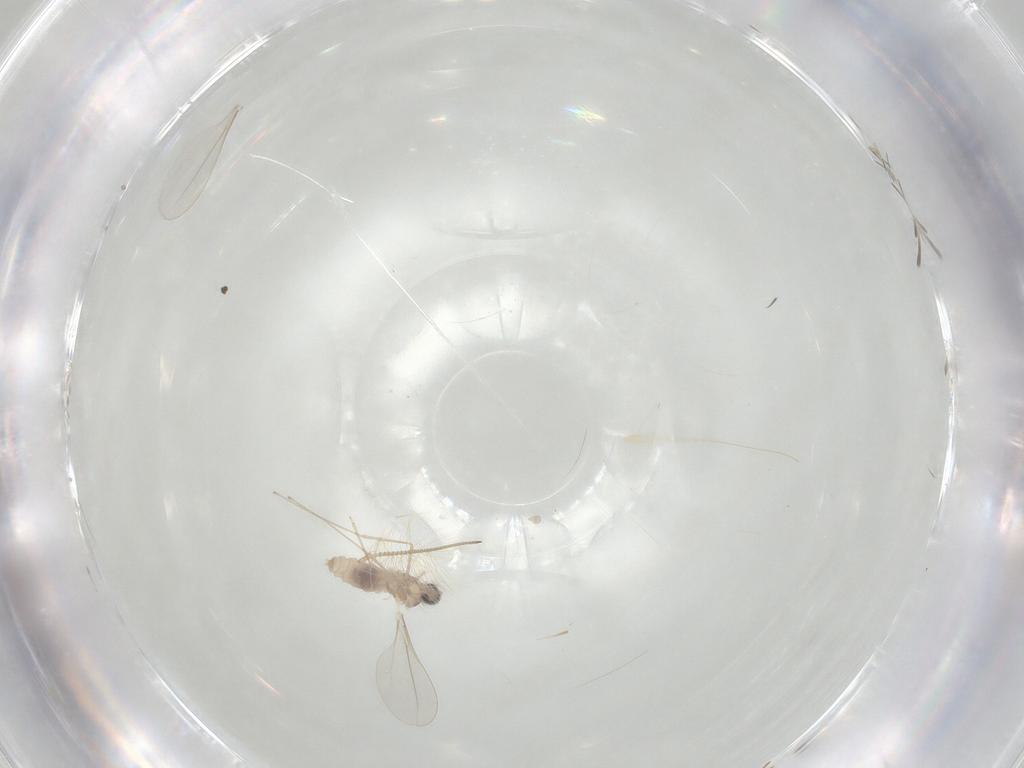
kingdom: Animalia
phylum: Arthropoda
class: Insecta
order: Diptera
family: Cecidomyiidae
